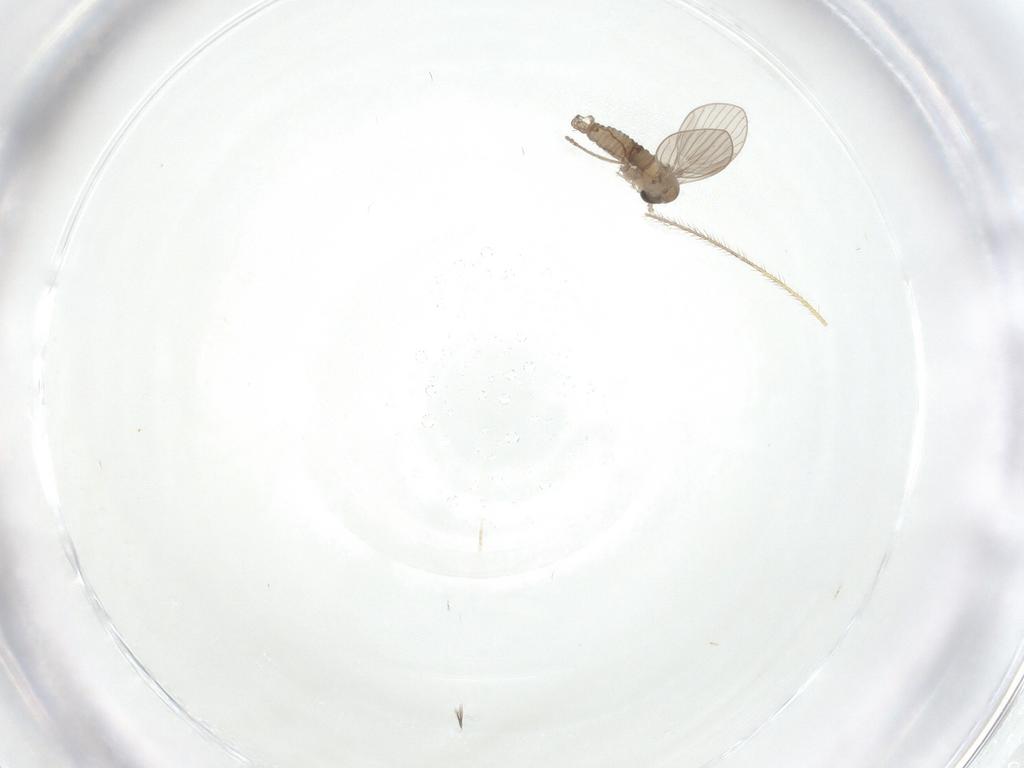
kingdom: Animalia
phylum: Arthropoda
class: Insecta
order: Diptera
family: Psychodidae
